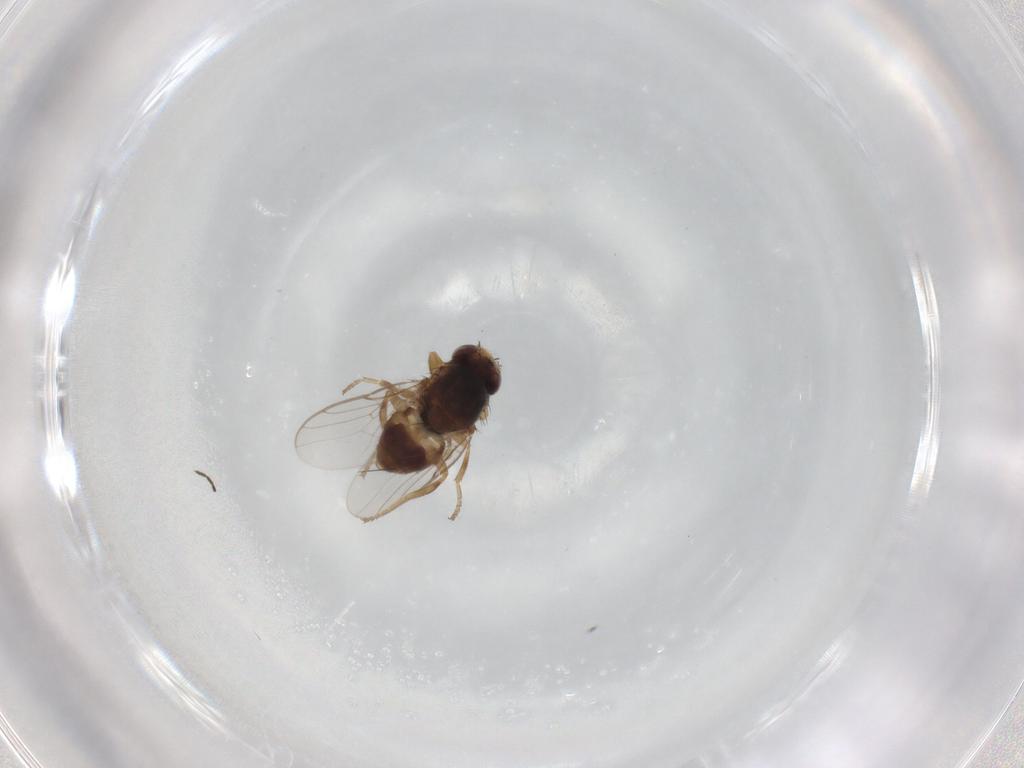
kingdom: Animalia
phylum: Arthropoda
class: Insecta
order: Diptera
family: Chloropidae
